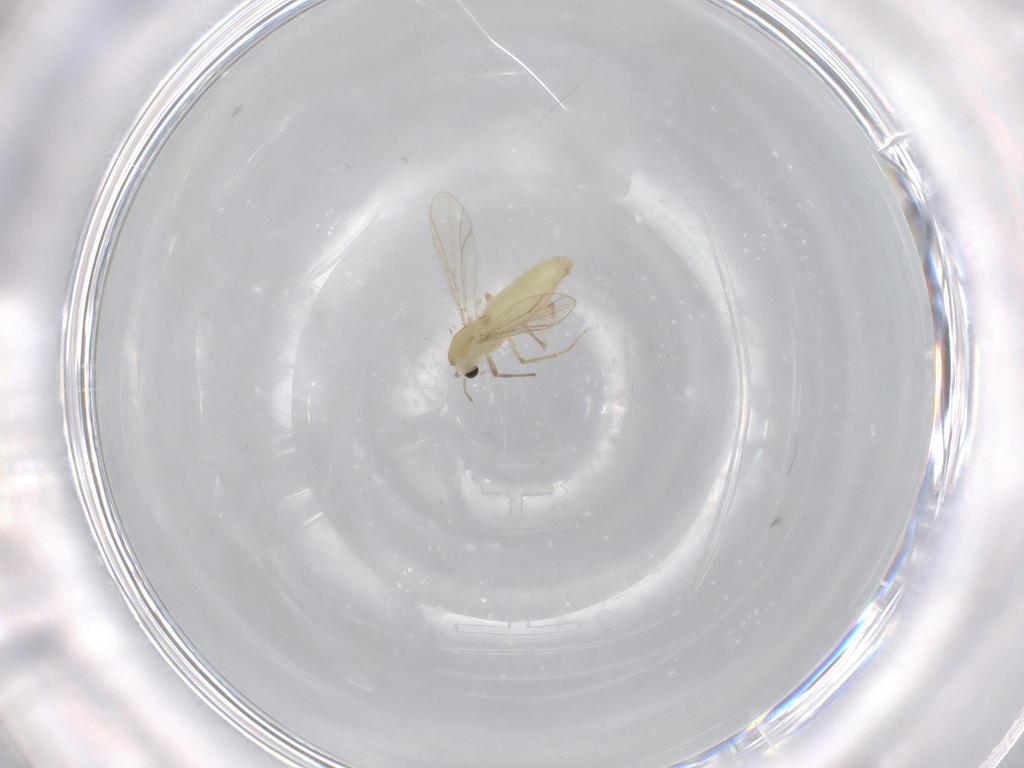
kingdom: Animalia
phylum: Arthropoda
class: Insecta
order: Diptera
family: Chironomidae
